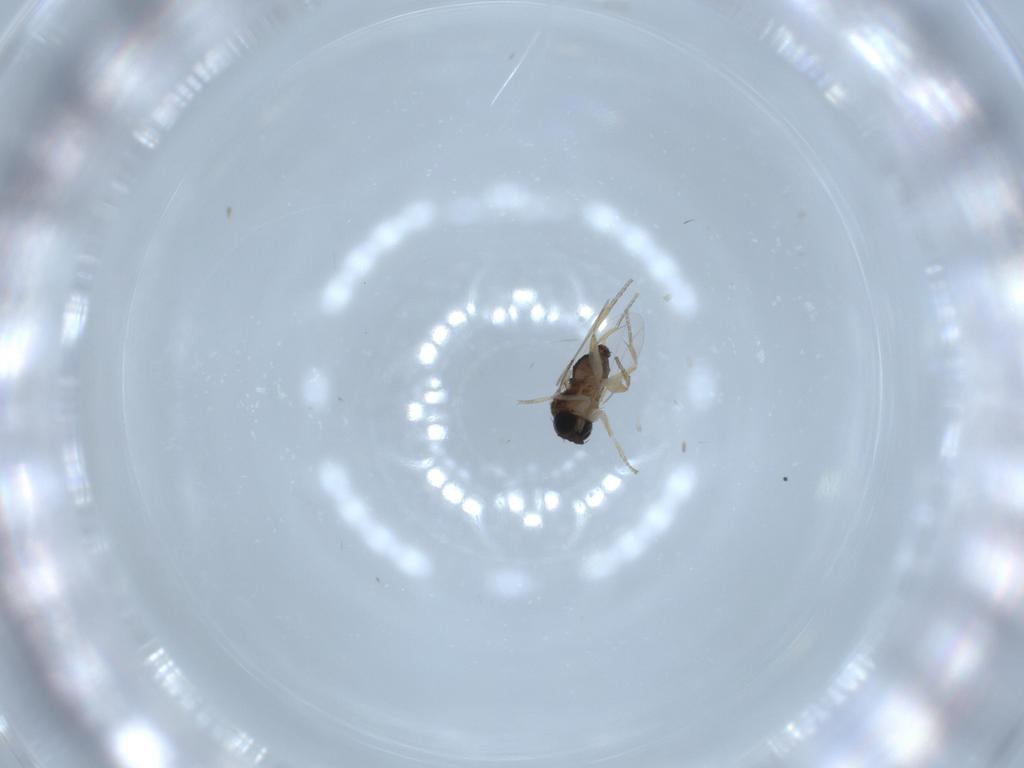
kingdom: Animalia
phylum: Arthropoda
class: Insecta
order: Diptera
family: Phoridae
